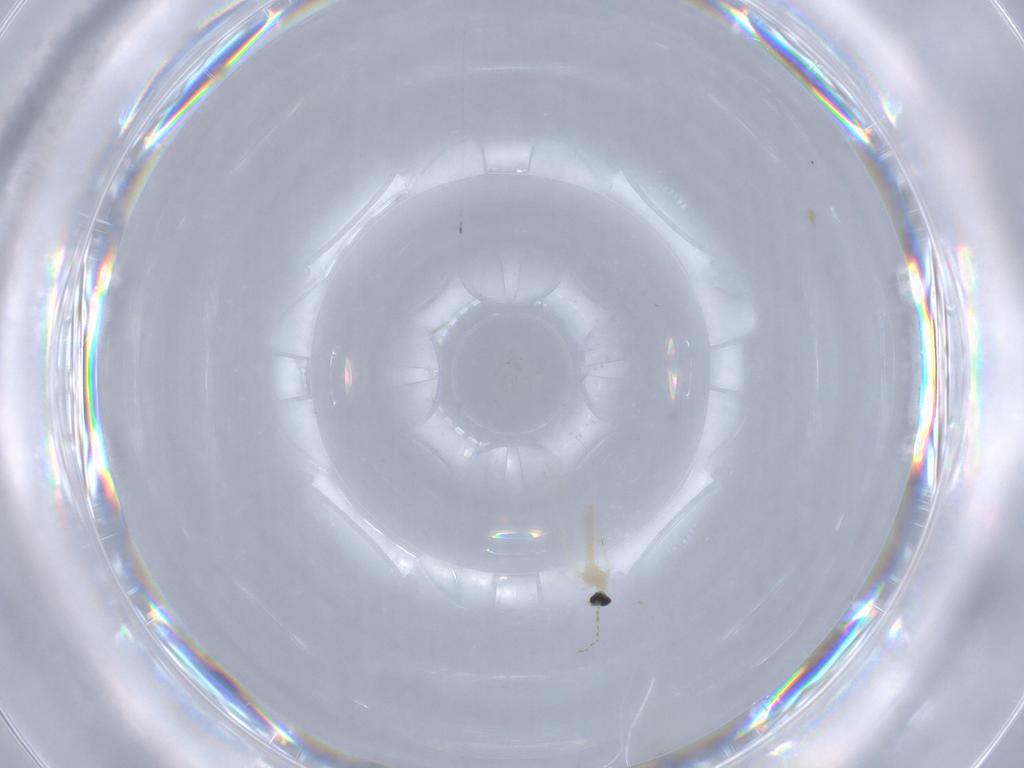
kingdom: Animalia
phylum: Arthropoda
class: Insecta
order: Diptera
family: Cecidomyiidae
